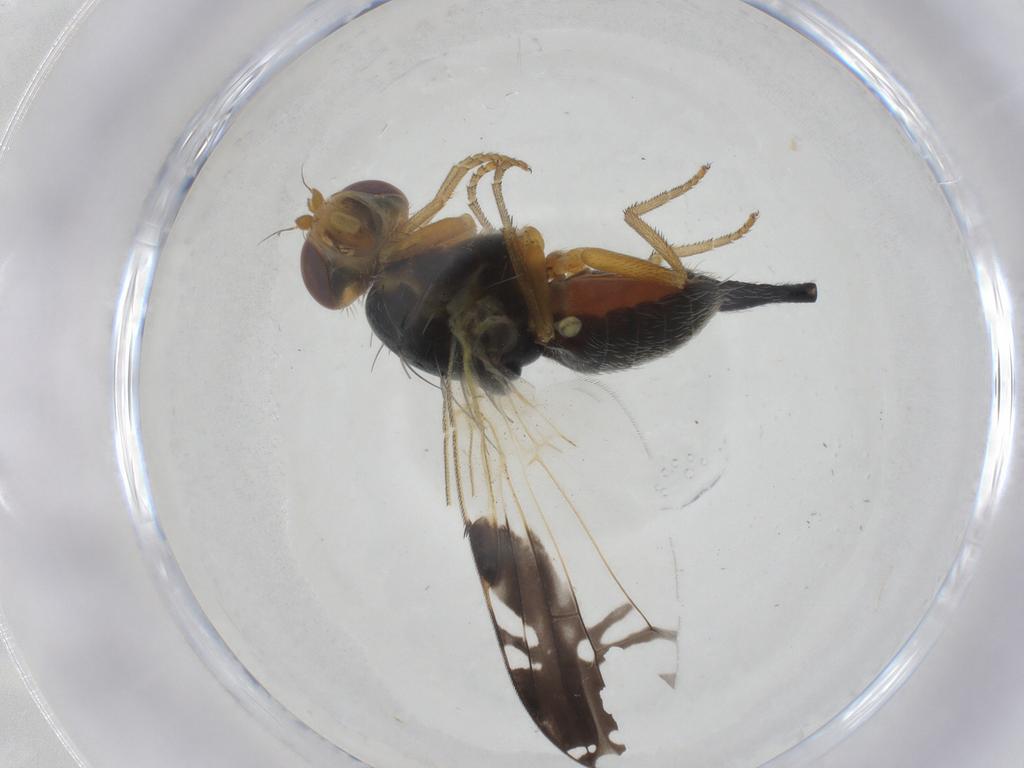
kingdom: Animalia
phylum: Arthropoda
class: Insecta
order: Diptera
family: Tephritidae
